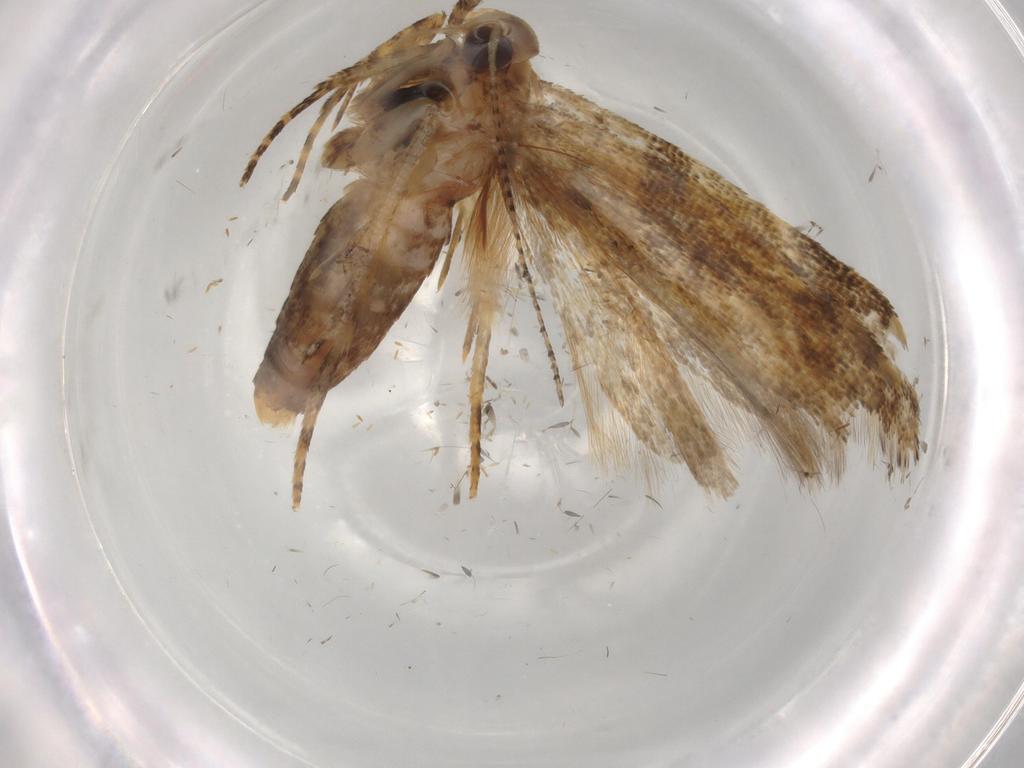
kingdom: Animalia
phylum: Arthropoda
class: Insecta
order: Lepidoptera
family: Gelechiidae
